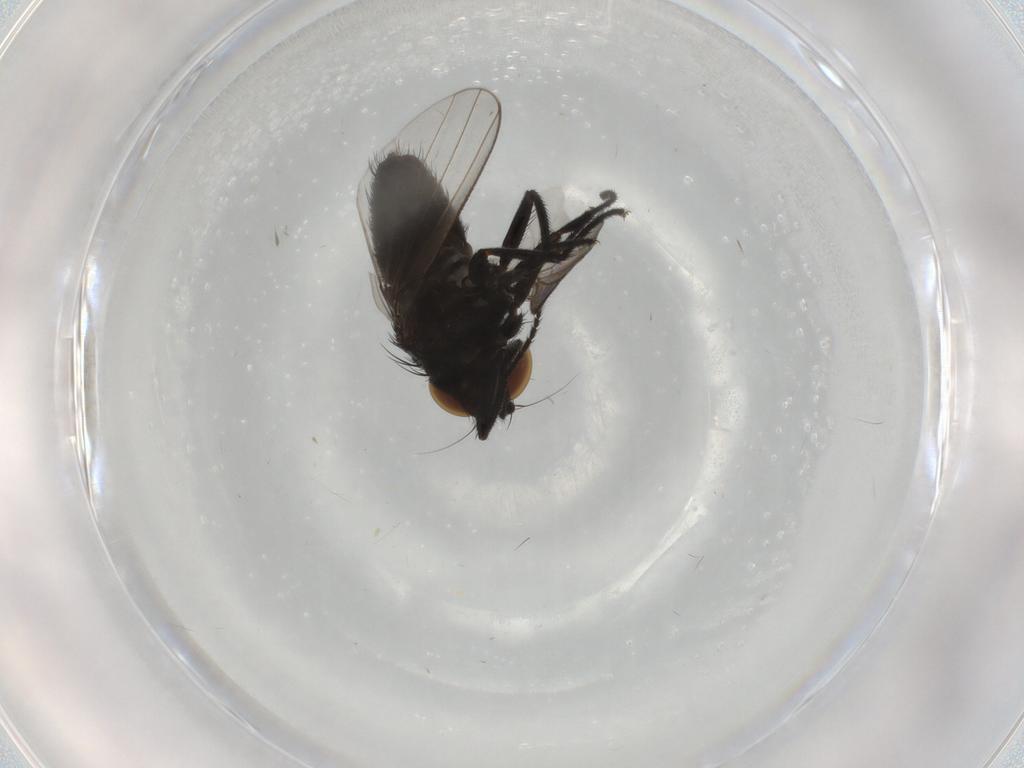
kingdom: Animalia
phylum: Arthropoda
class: Insecta
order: Diptera
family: Milichiidae
